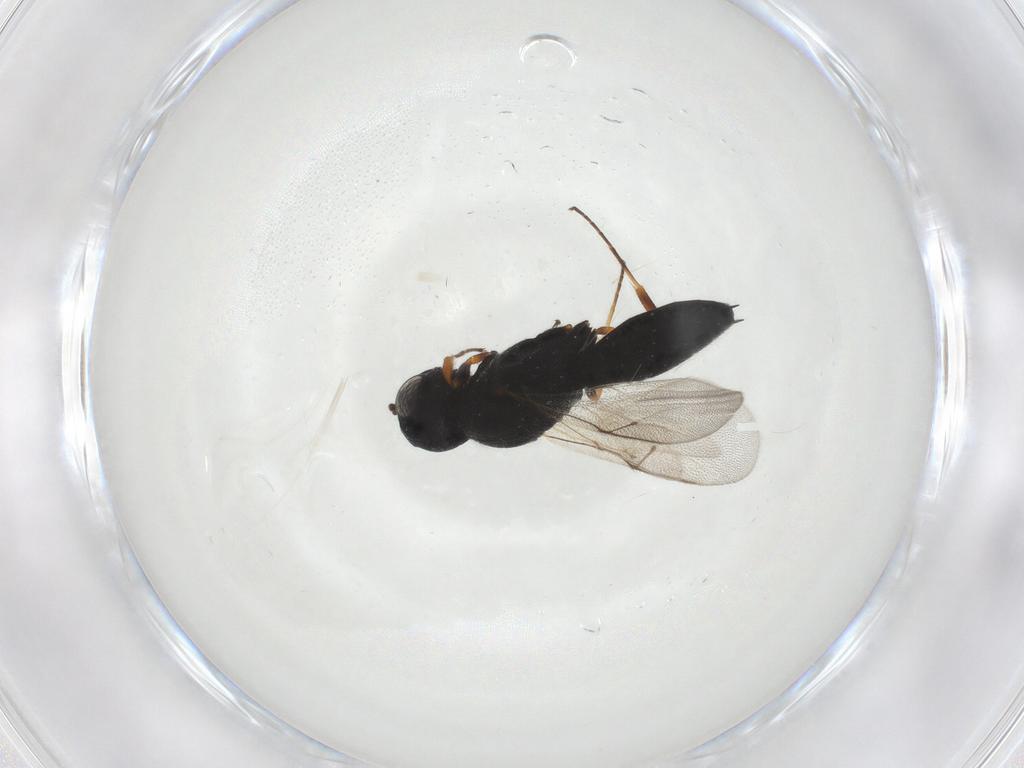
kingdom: Animalia
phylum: Arthropoda
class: Insecta
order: Hymenoptera
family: Scelionidae
